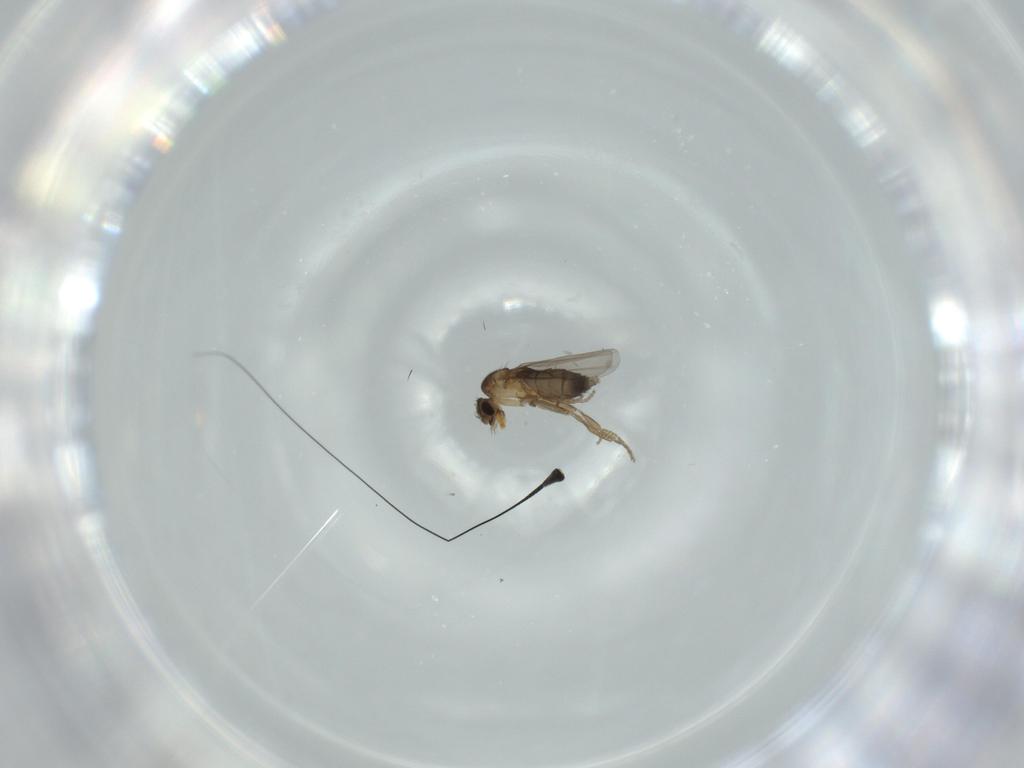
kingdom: Animalia
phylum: Arthropoda
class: Insecta
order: Diptera
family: Dolichopodidae
